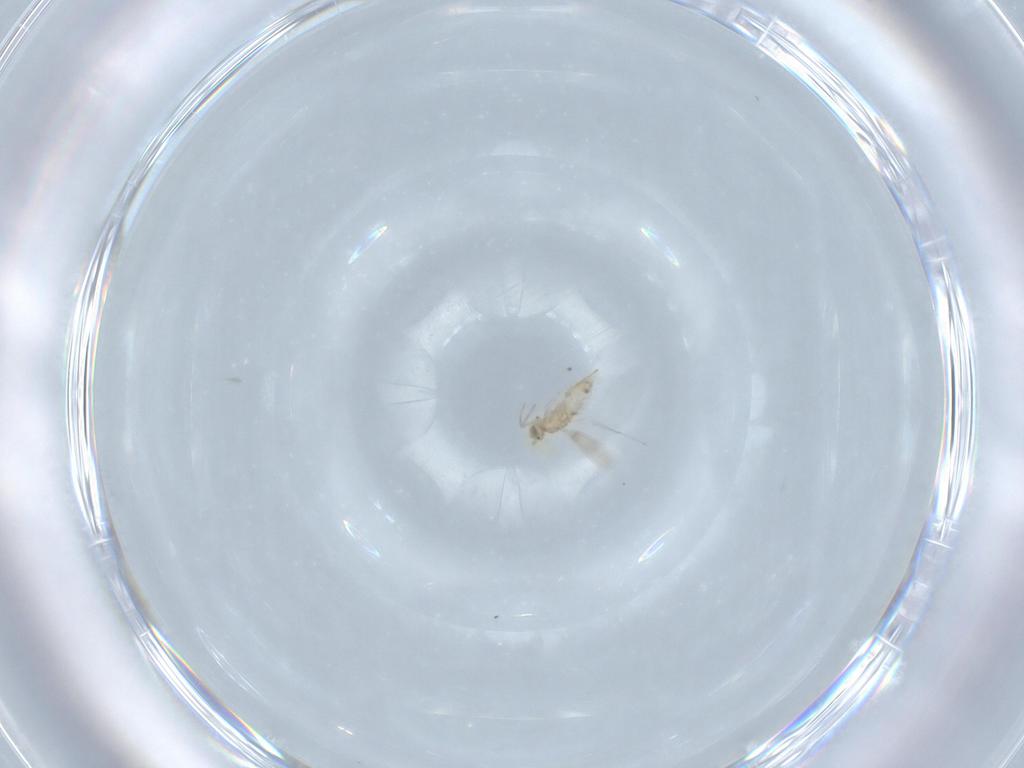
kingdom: Animalia
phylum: Arthropoda
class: Insecta
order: Hymenoptera
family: Aphelinidae
